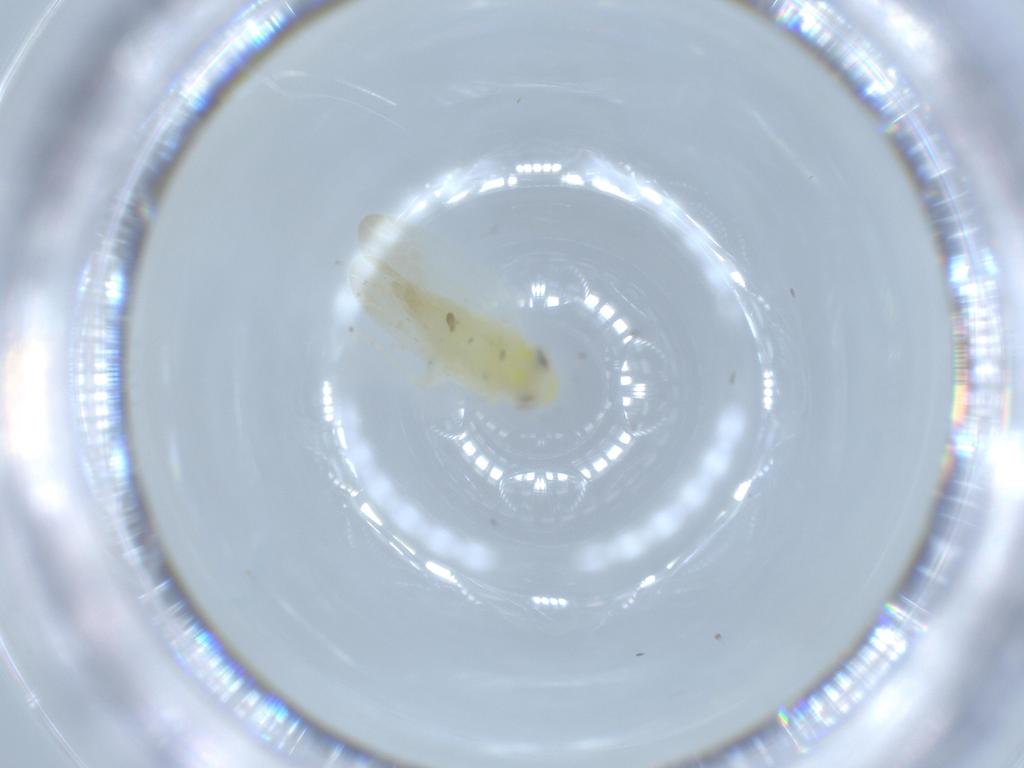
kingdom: Animalia
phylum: Arthropoda
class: Insecta
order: Hemiptera
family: Cicadellidae
